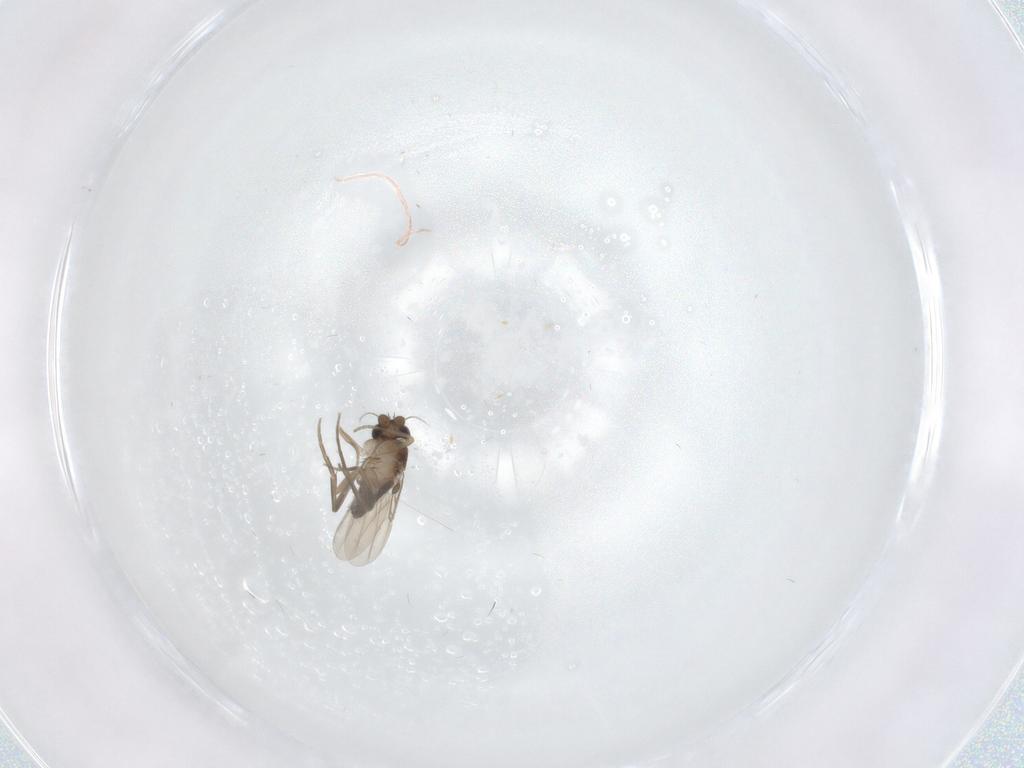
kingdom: Animalia
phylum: Arthropoda
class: Insecta
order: Diptera
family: Phoridae
